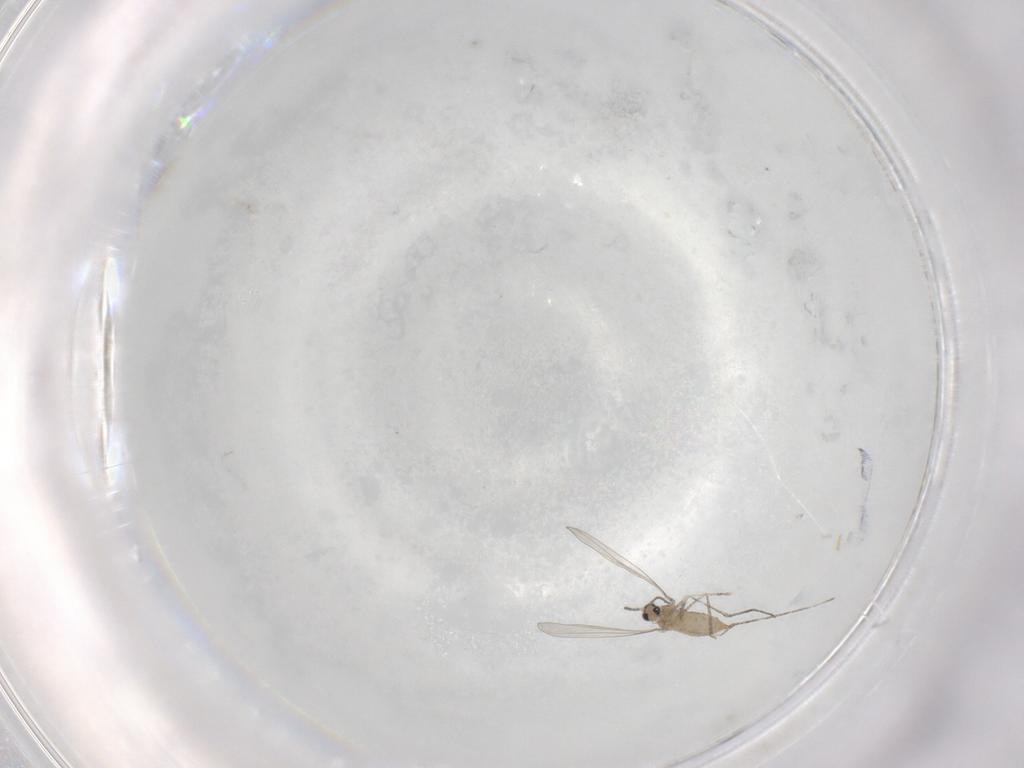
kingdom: Animalia
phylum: Arthropoda
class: Insecta
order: Diptera
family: Cecidomyiidae
